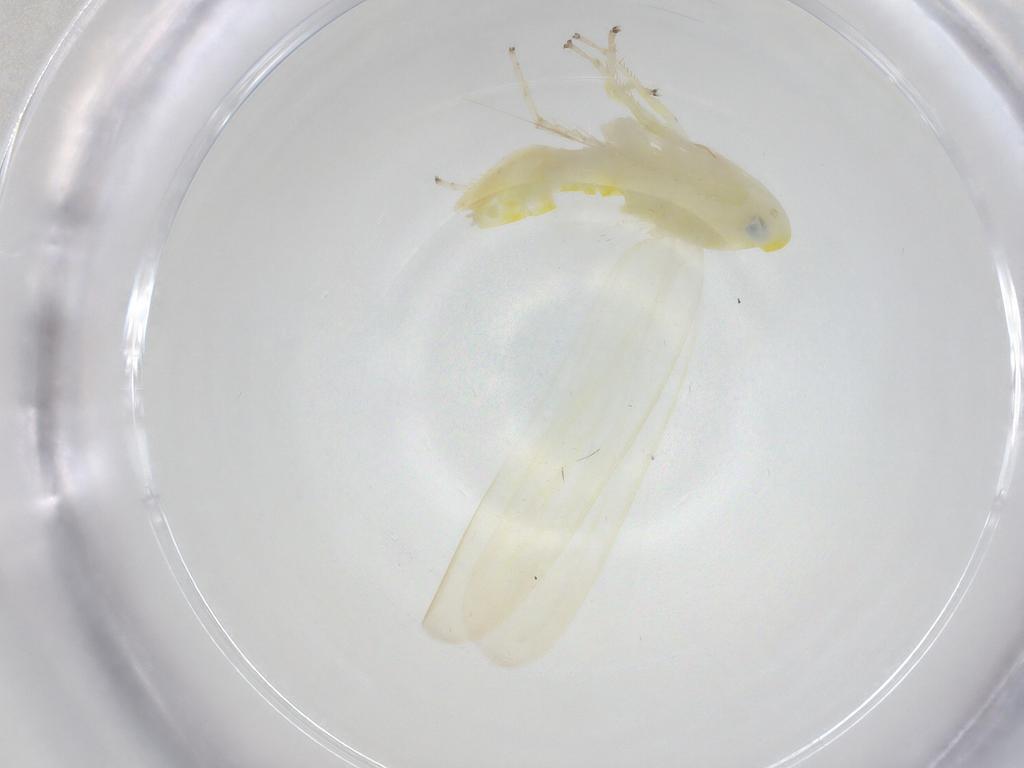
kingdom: Animalia
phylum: Arthropoda
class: Insecta
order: Hemiptera
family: Cicadellidae
